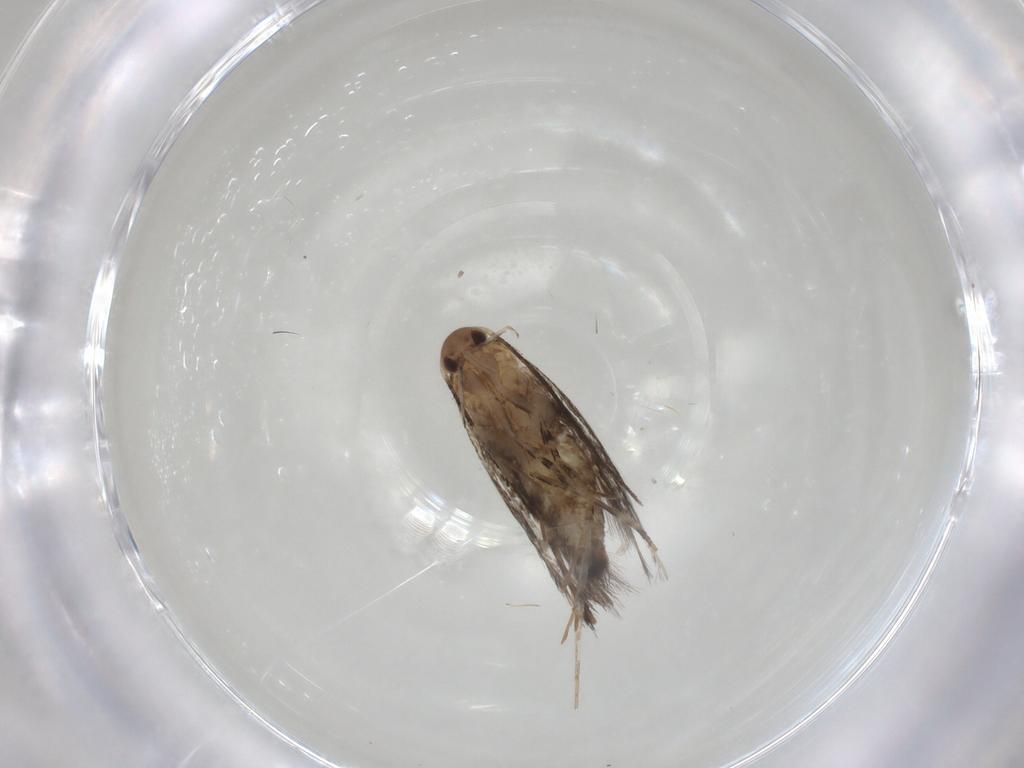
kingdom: Animalia
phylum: Arthropoda
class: Insecta
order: Lepidoptera
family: Elachistidae
